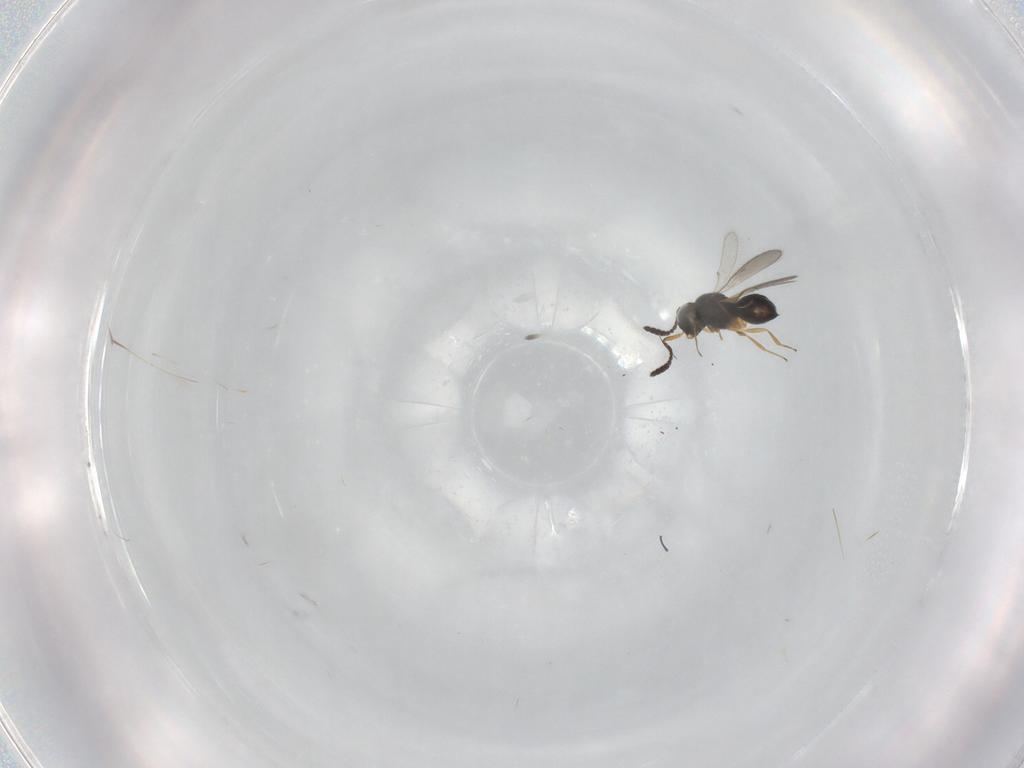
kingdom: Animalia
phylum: Arthropoda
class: Insecta
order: Hymenoptera
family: Scelionidae
